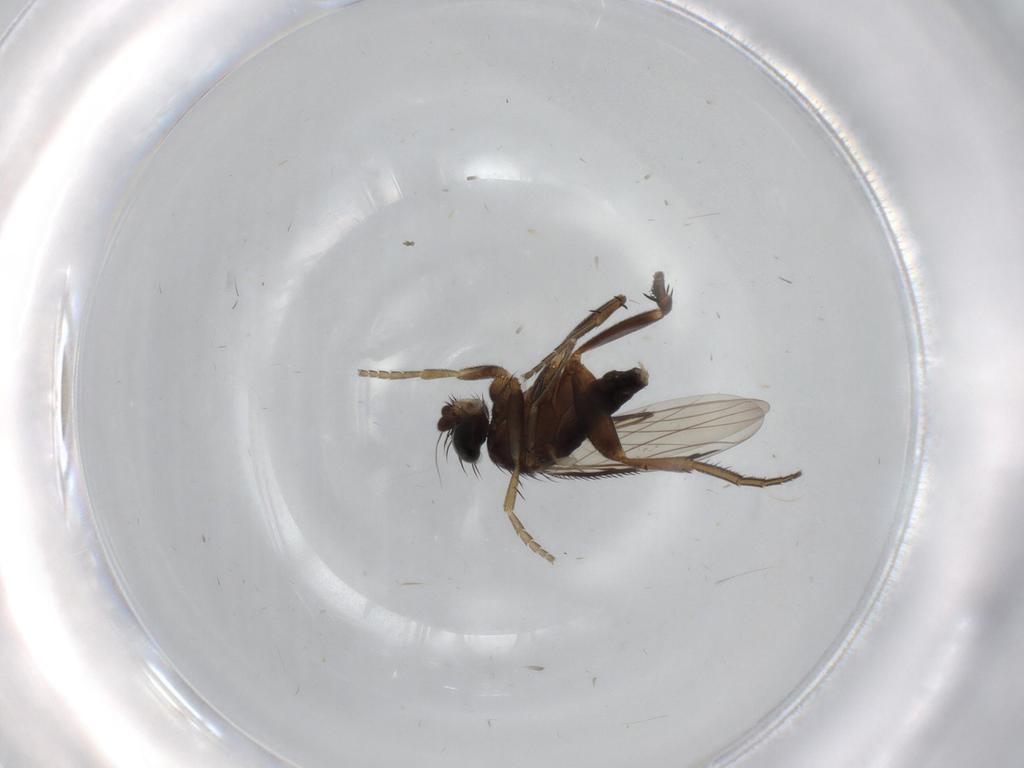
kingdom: Animalia
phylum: Arthropoda
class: Insecta
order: Diptera
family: Phoridae
